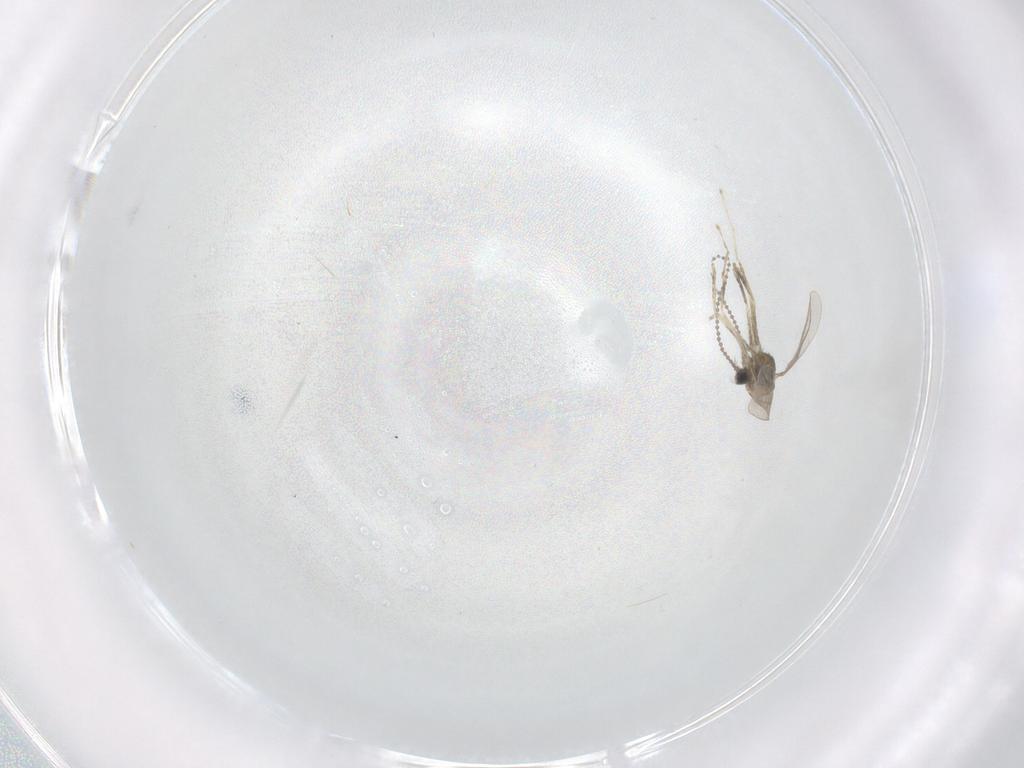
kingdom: Animalia
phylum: Arthropoda
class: Insecta
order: Diptera
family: Cecidomyiidae
